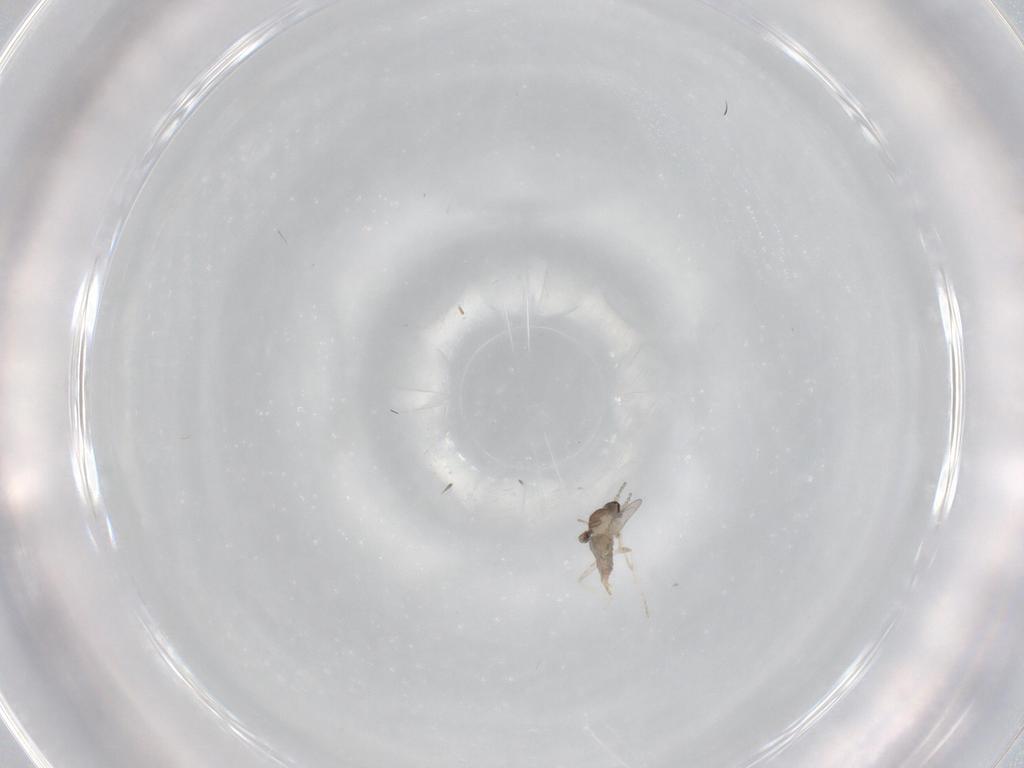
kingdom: Animalia
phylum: Arthropoda
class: Insecta
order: Diptera
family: Cecidomyiidae
